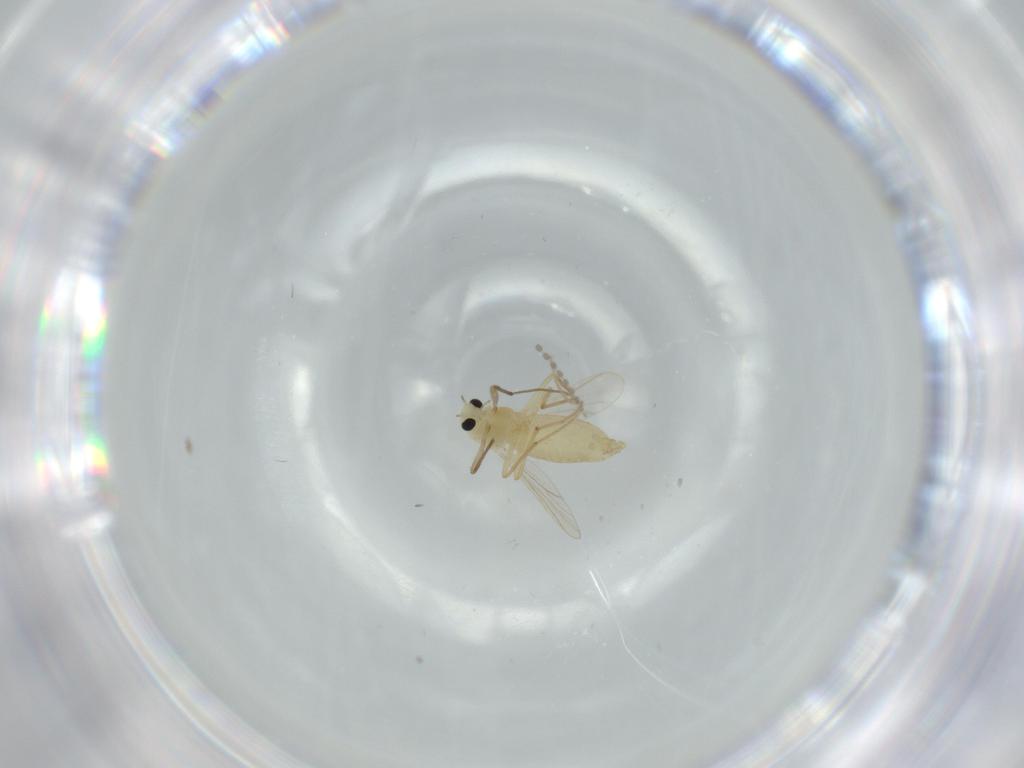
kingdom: Animalia
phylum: Arthropoda
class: Insecta
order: Diptera
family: Chironomidae
